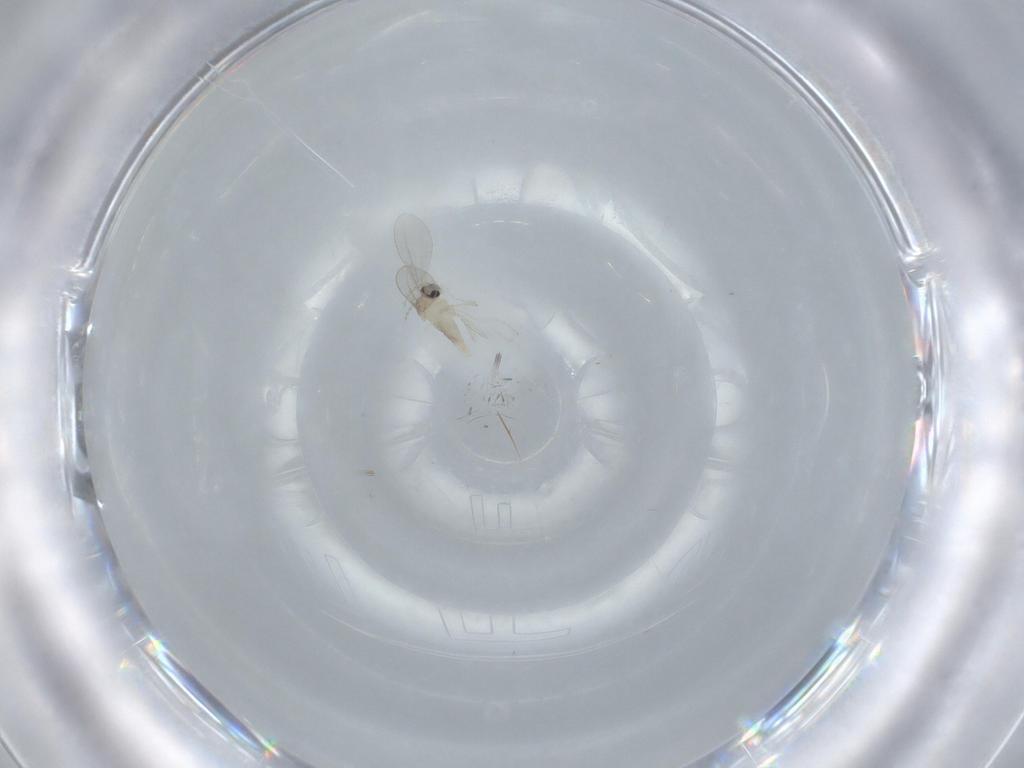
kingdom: Animalia
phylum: Arthropoda
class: Insecta
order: Diptera
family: Cecidomyiidae
